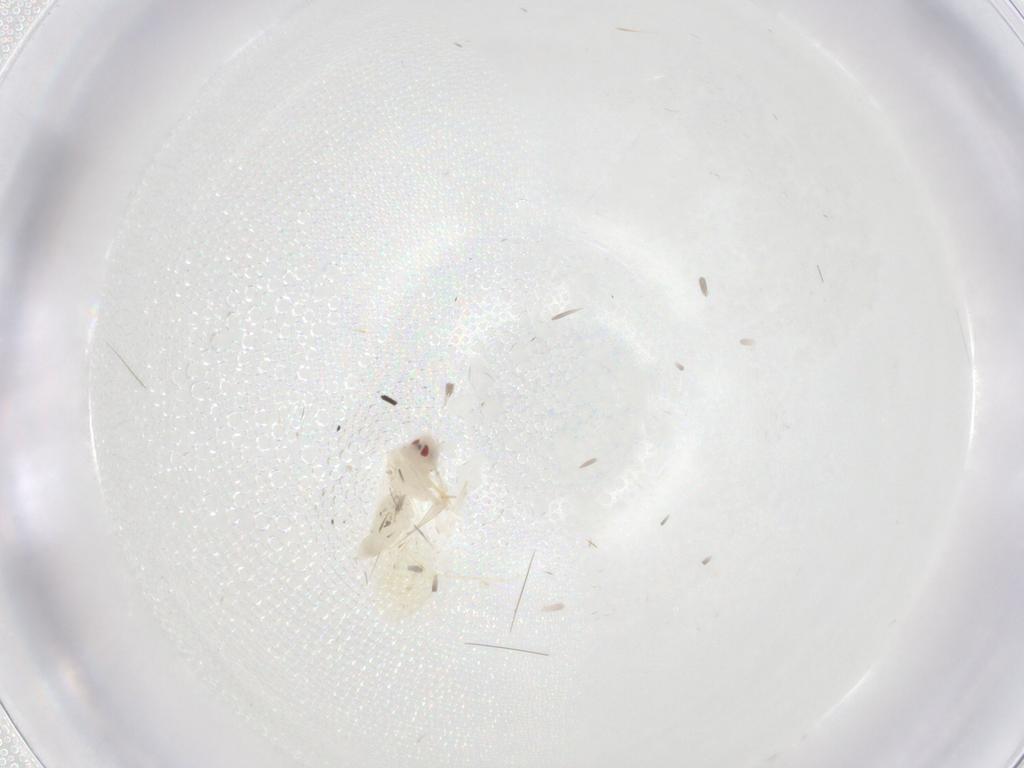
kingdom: Animalia
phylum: Arthropoda
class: Insecta
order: Hemiptera
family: Aleyrodidae
